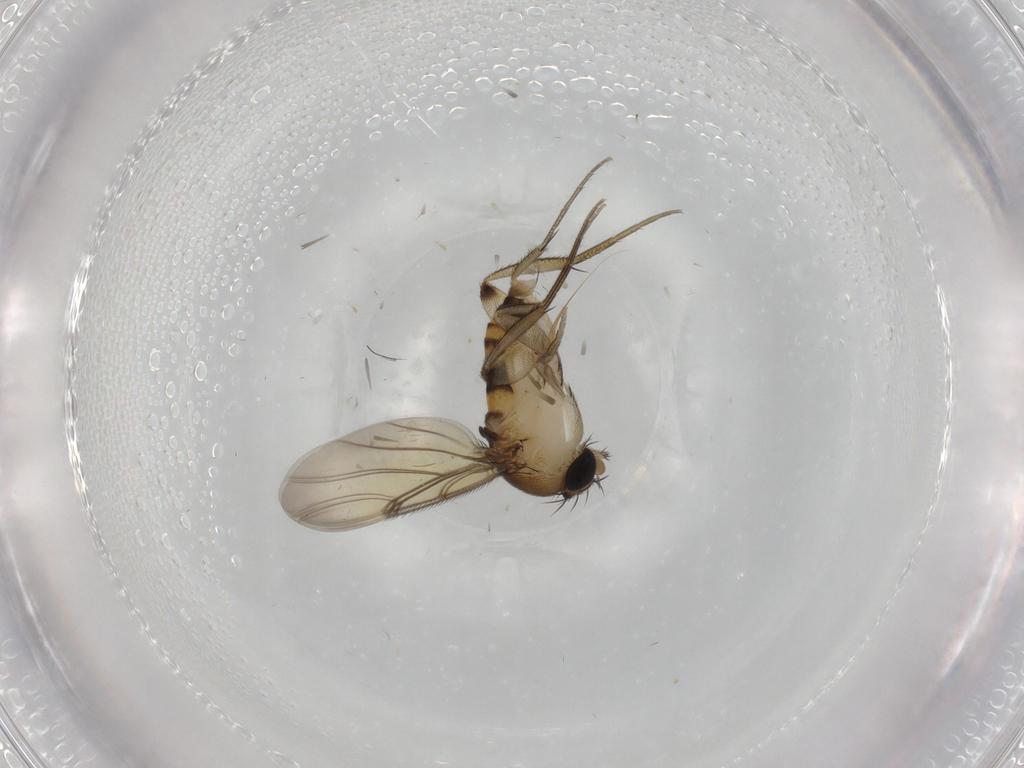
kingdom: Animalia
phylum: Arthropoda
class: Insecta
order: Diptera
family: Phoridae
